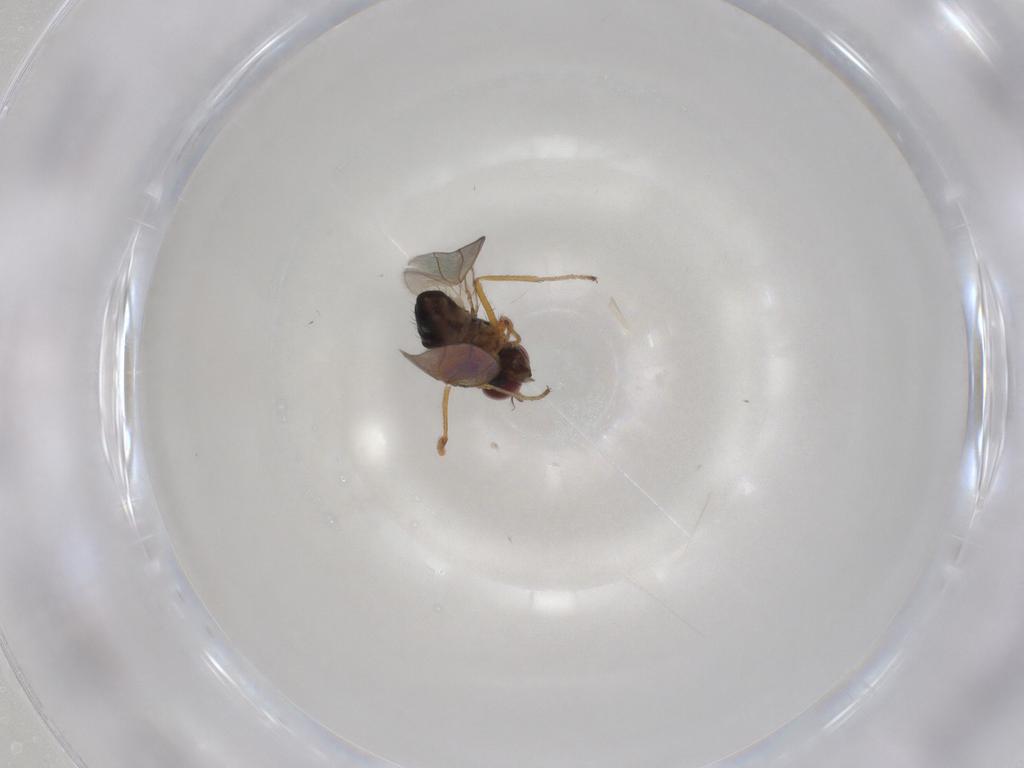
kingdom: Animalia
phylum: Arthropoda
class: Insecta
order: Diptera
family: Ephydridae
